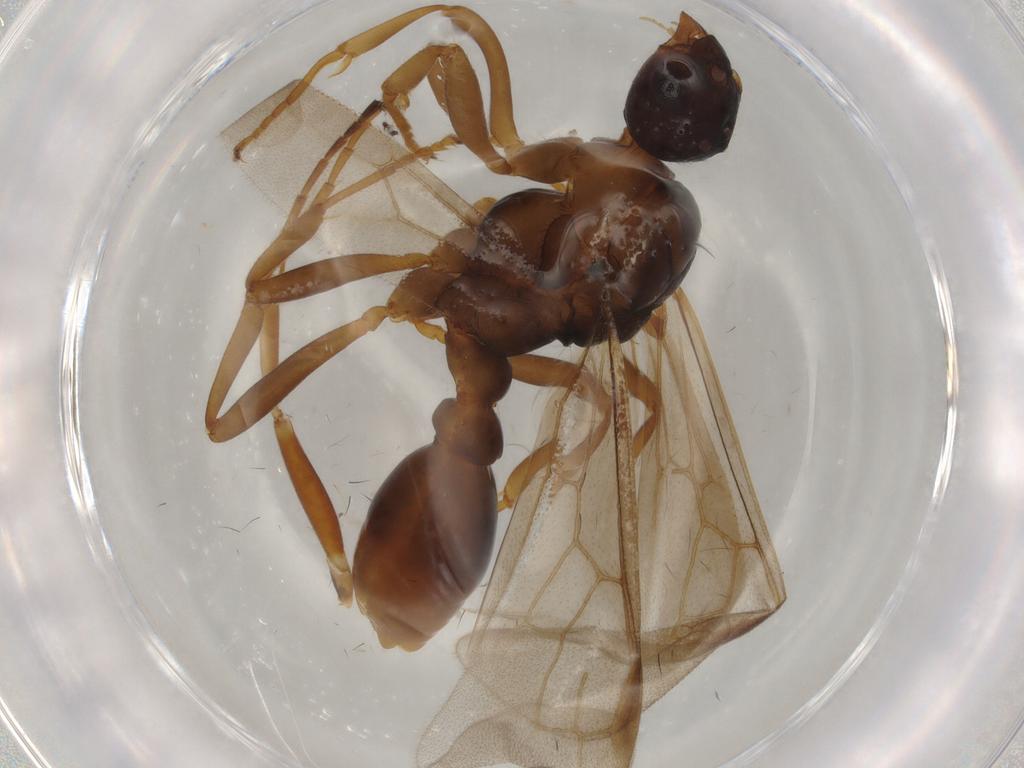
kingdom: Animalia
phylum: Arthropoda
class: Insecta
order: Hymenoptera
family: Formicidae
